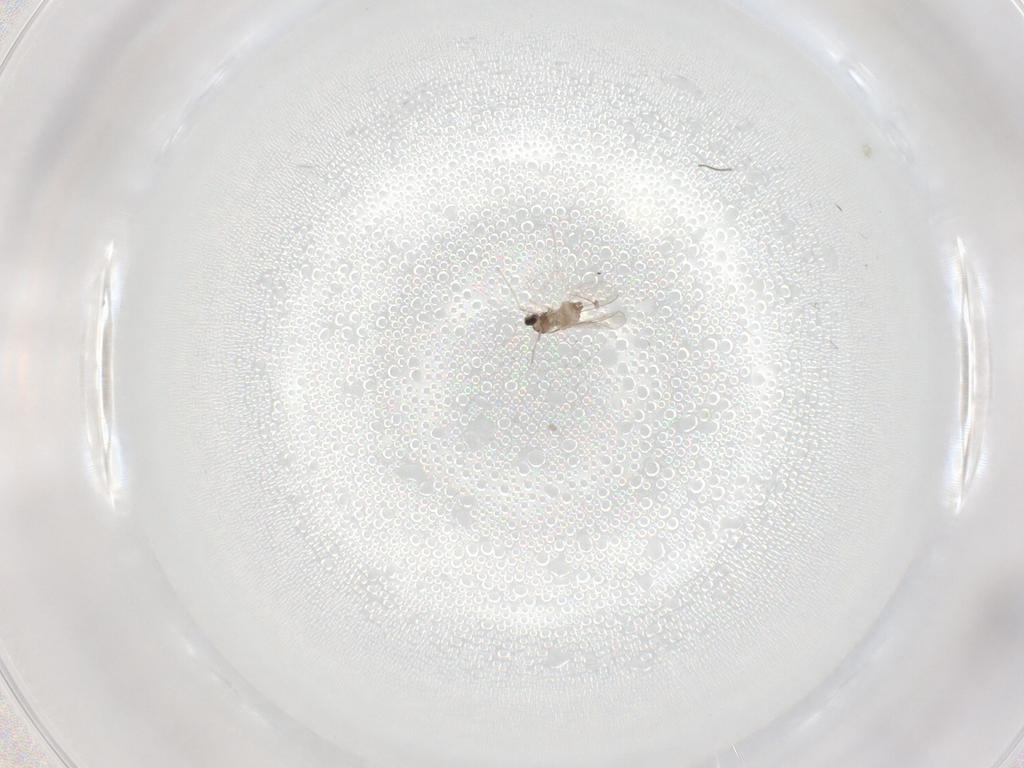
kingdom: Animalia
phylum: Arthropoda
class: Insecta
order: Diptera
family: Cecidomyiidae
